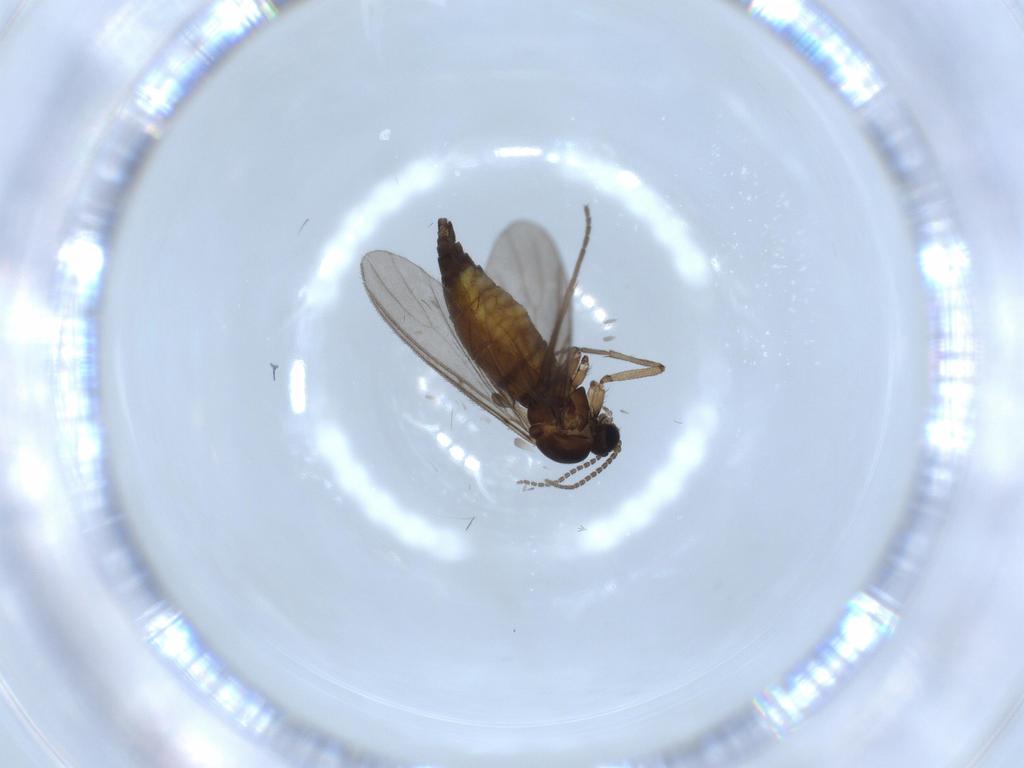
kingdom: Animalia
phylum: Arthropoda
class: Insecta
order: Diptera
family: Sciaridae
